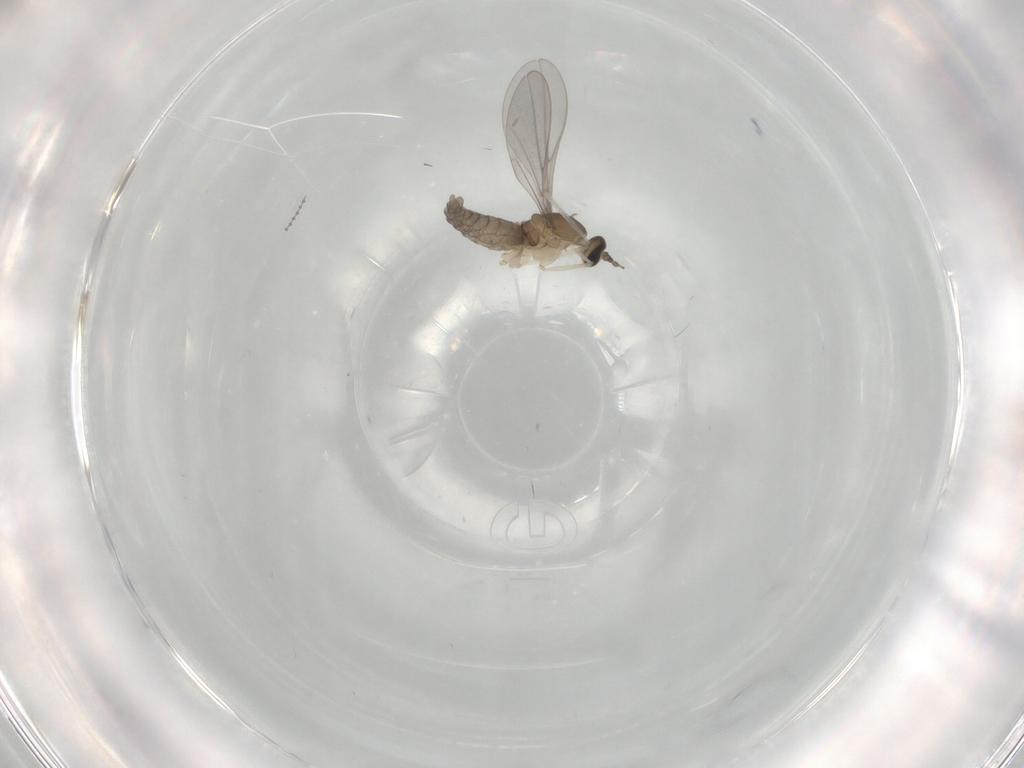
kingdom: Animalia
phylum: Arthropoda
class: Insecta
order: Diptera
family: Cecidomyiidae
